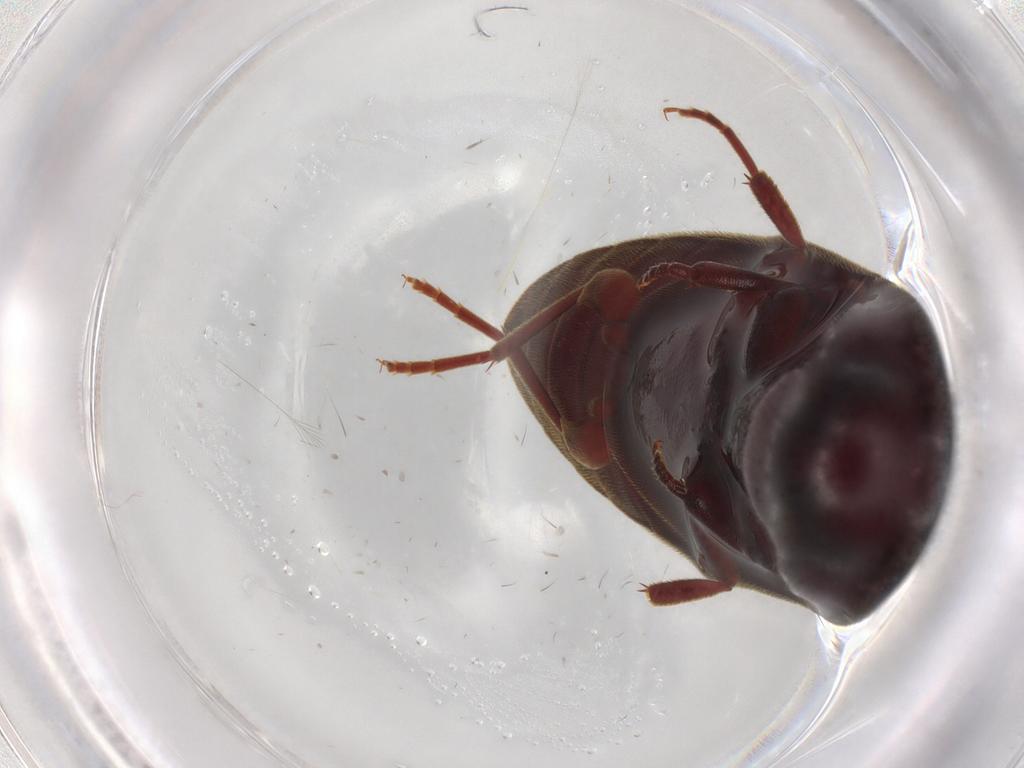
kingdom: Animalia
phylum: Arthropoda
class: Insecta
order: Coleoptera
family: Eucnemidae
